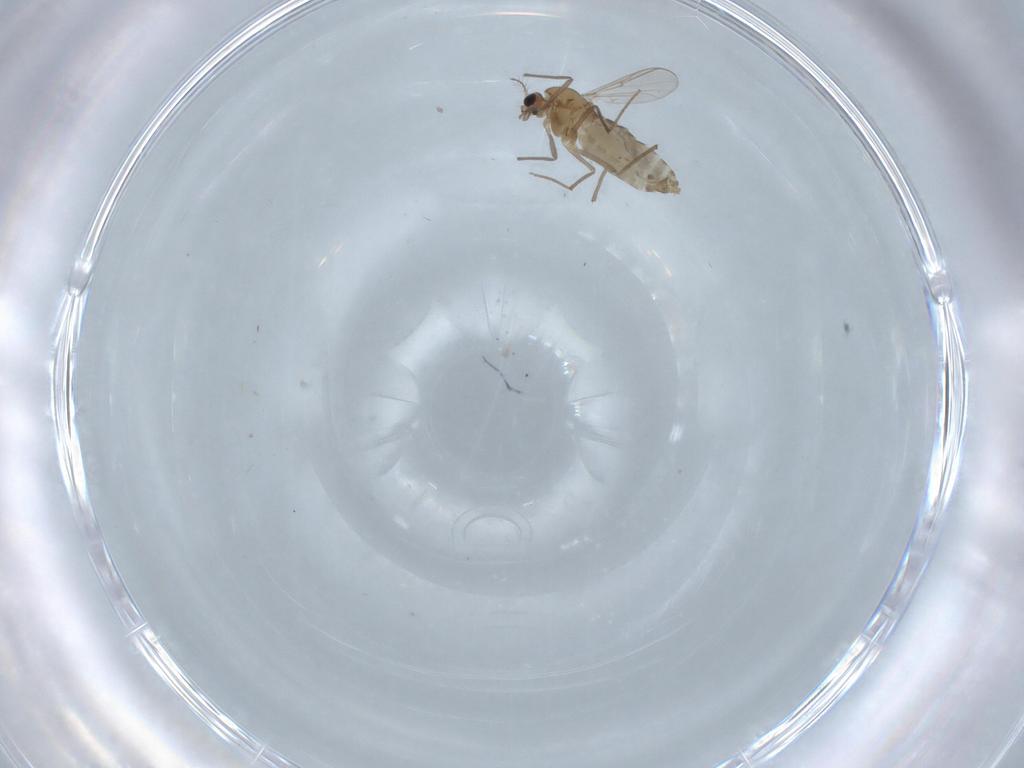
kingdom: Animalia
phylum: Arthropoda
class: Insecta
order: Diptera
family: Chironomidae
